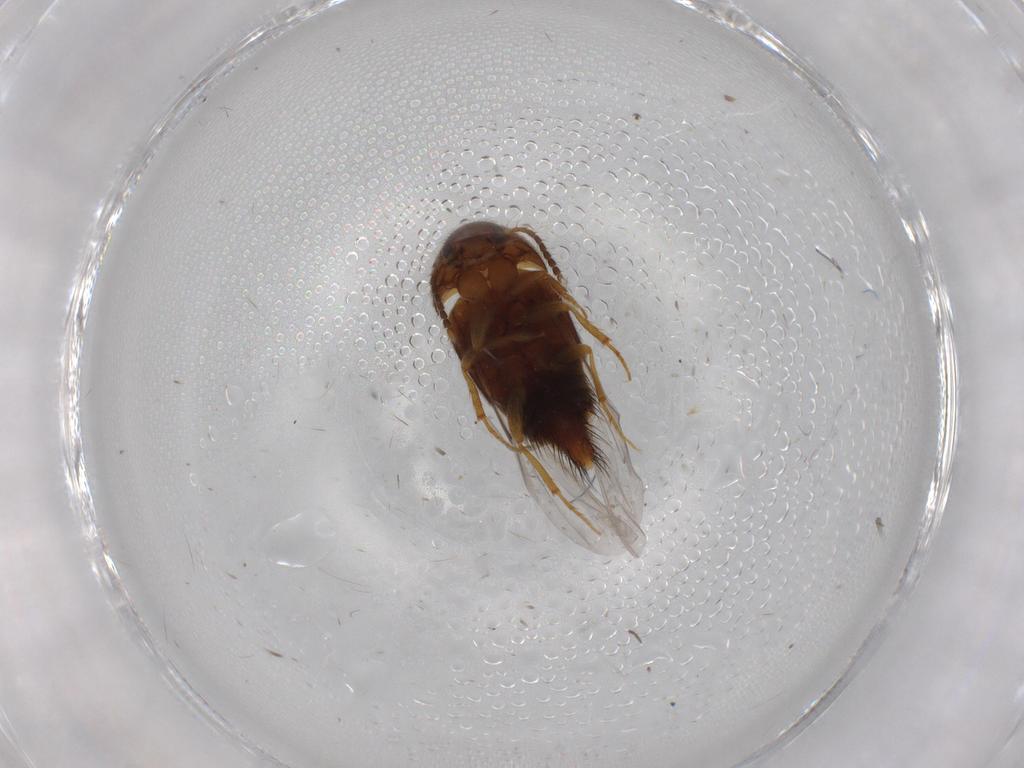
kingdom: Animalia
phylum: Arthropoda
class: Insecta
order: Coleoptera
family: Staphylinidae
